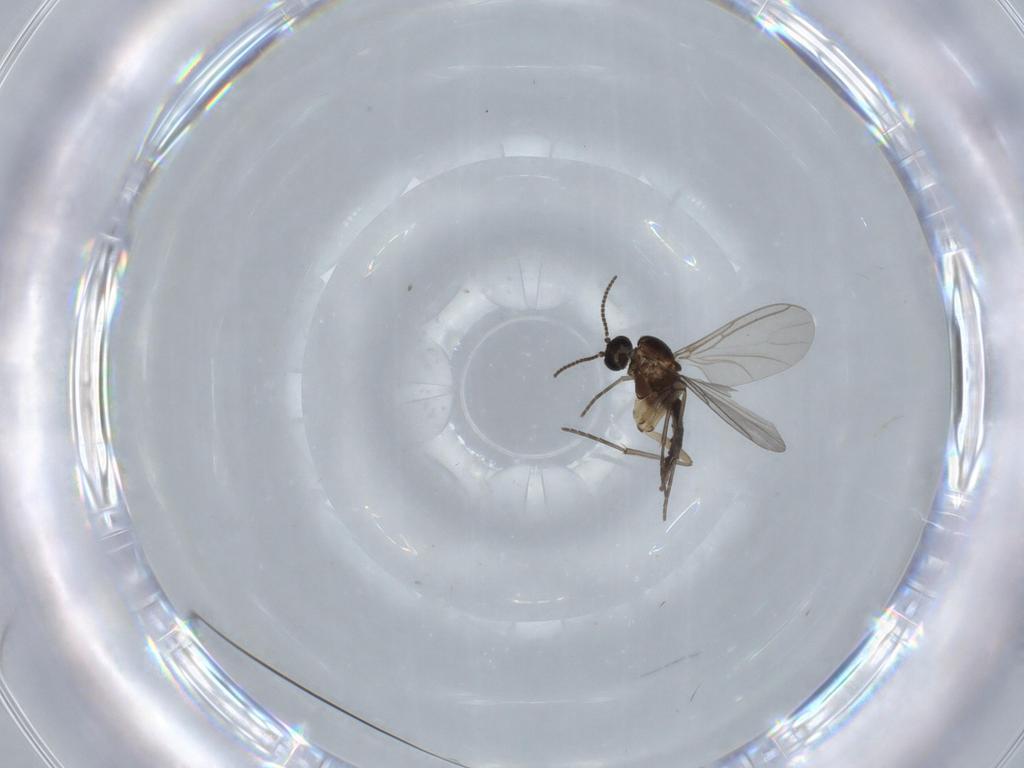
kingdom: Animalia
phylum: Arthropoda
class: Insecta
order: Diptera
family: Sciaridae
